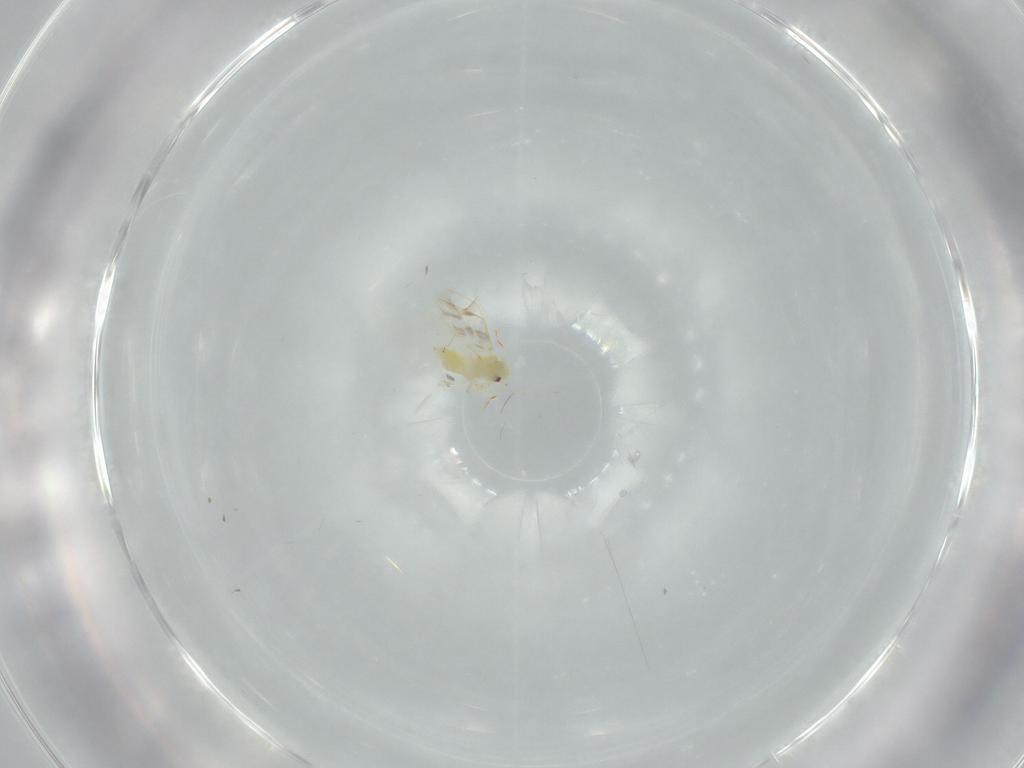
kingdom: Animalia
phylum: Arthropoda
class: Insecta
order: Hemiptera
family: Aleyrodidae
